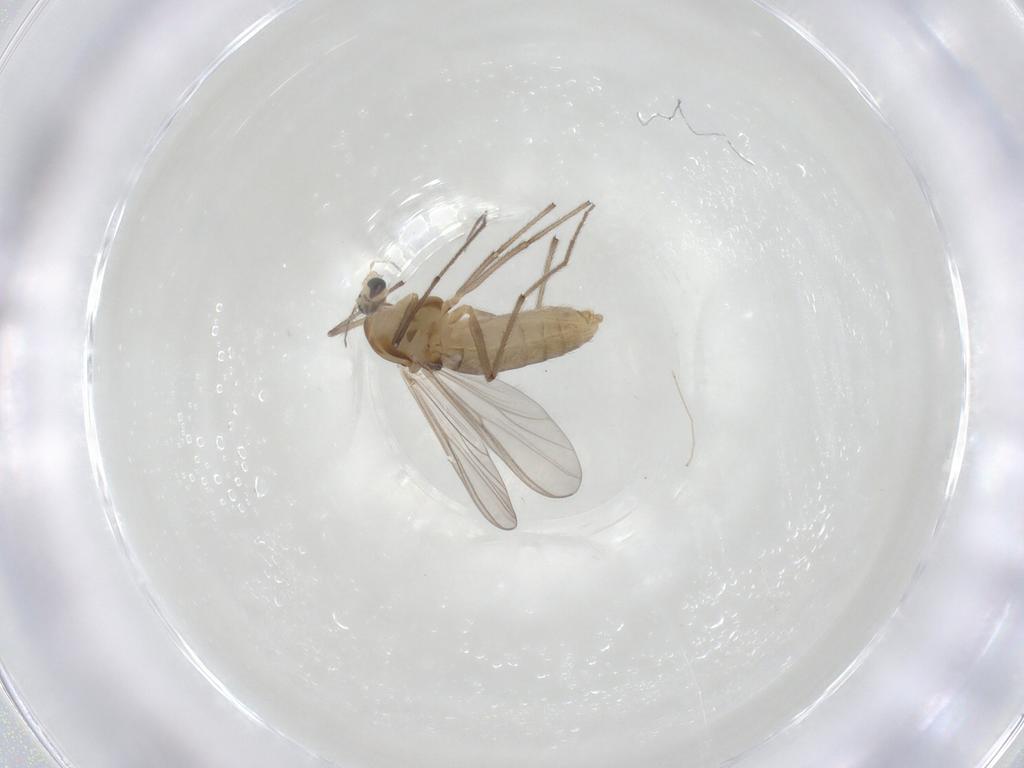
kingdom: Animalia
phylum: Arthropoda
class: Insecta
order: Diptera
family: Chironomidae
